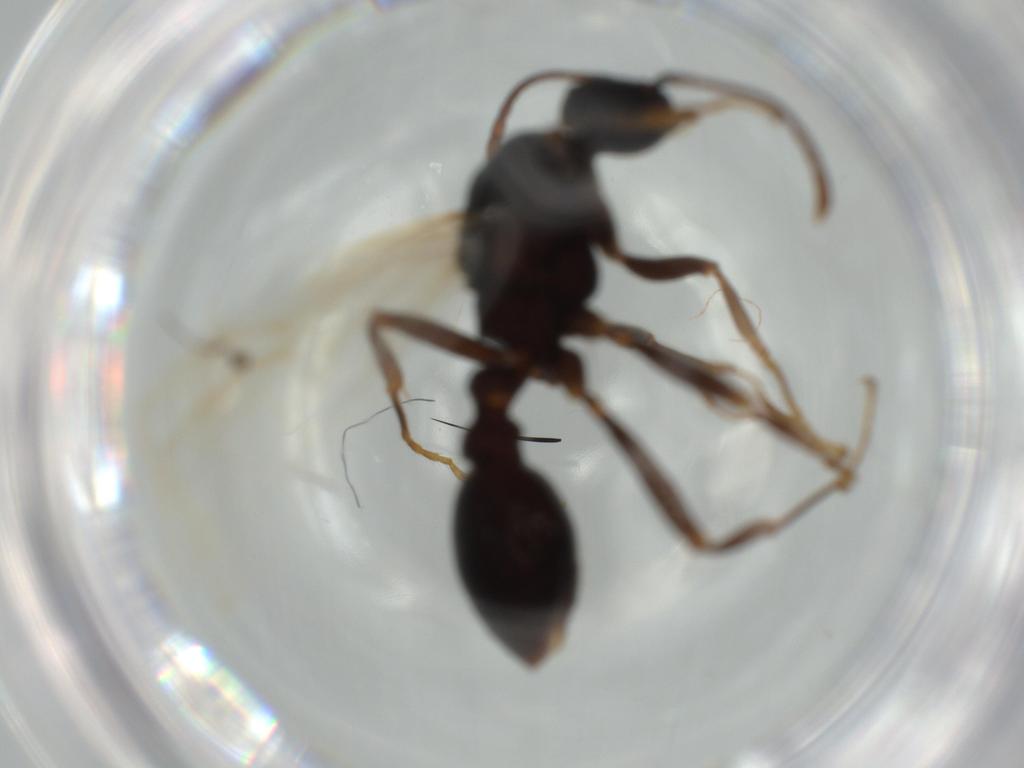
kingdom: Animalia
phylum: Arthropoda
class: Insecta
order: Hymenoptera
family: Formicidae
